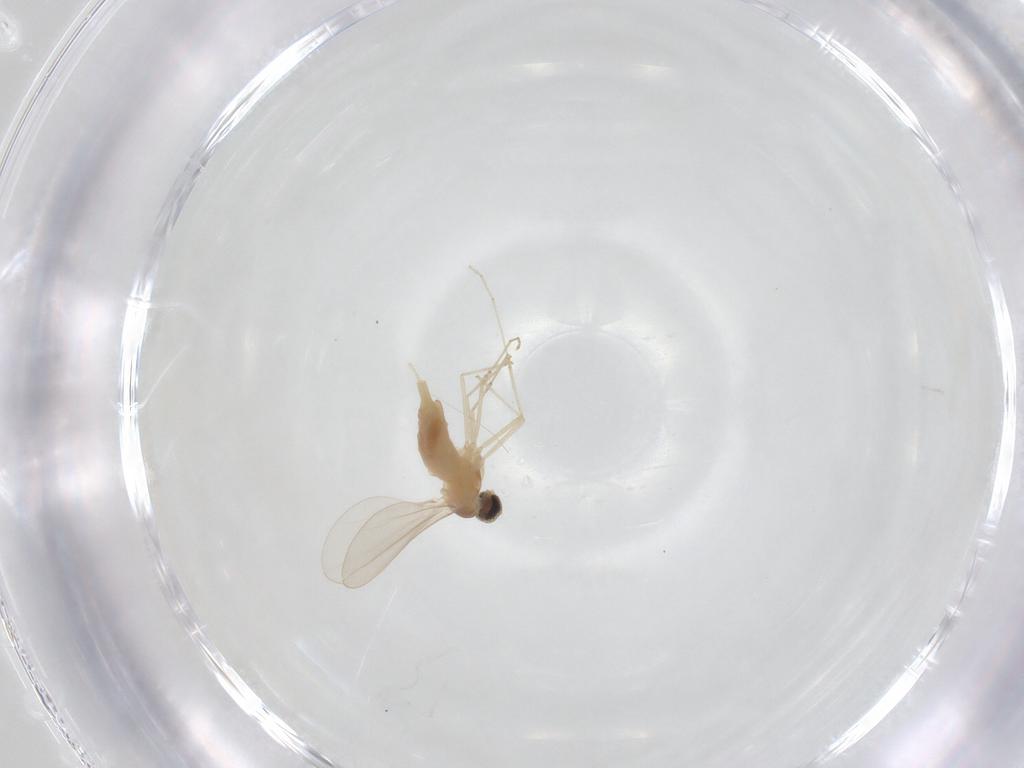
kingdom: Animalia
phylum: Arthropoda
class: Insecta
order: Diptera
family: Cecidomyiidae
